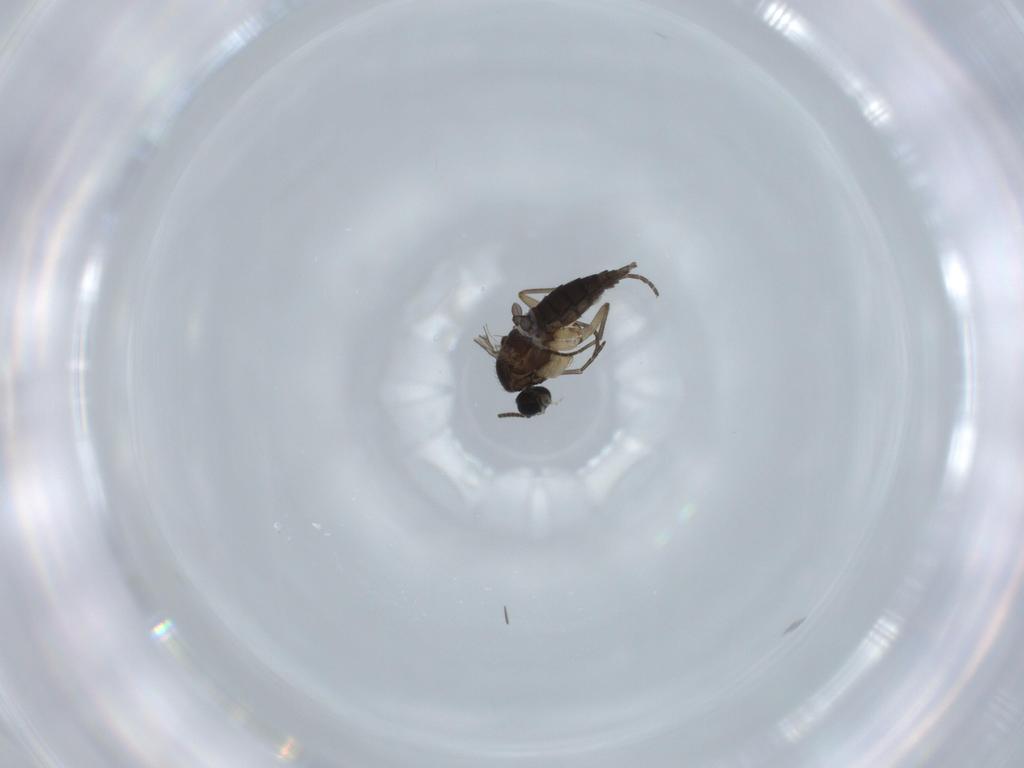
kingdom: Animalia
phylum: Arthropoda
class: Insecta
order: Diptera
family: Sciaridae
